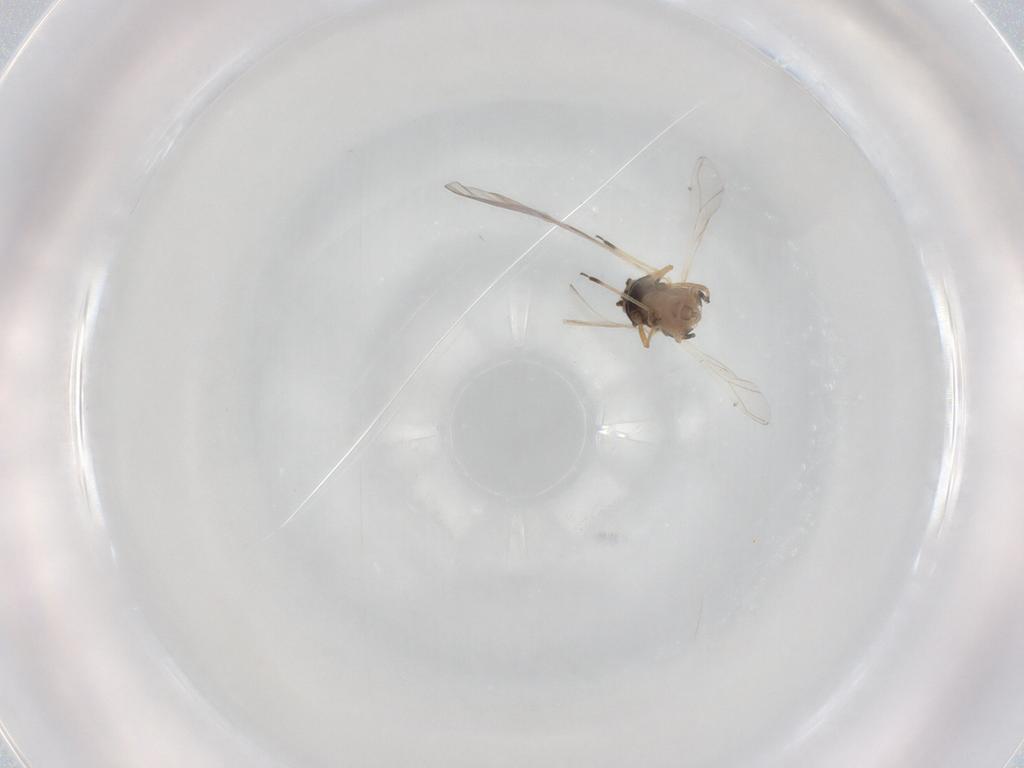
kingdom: Animalia
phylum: Arthropoda
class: Insecta
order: Hemiptera
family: Aphididae
